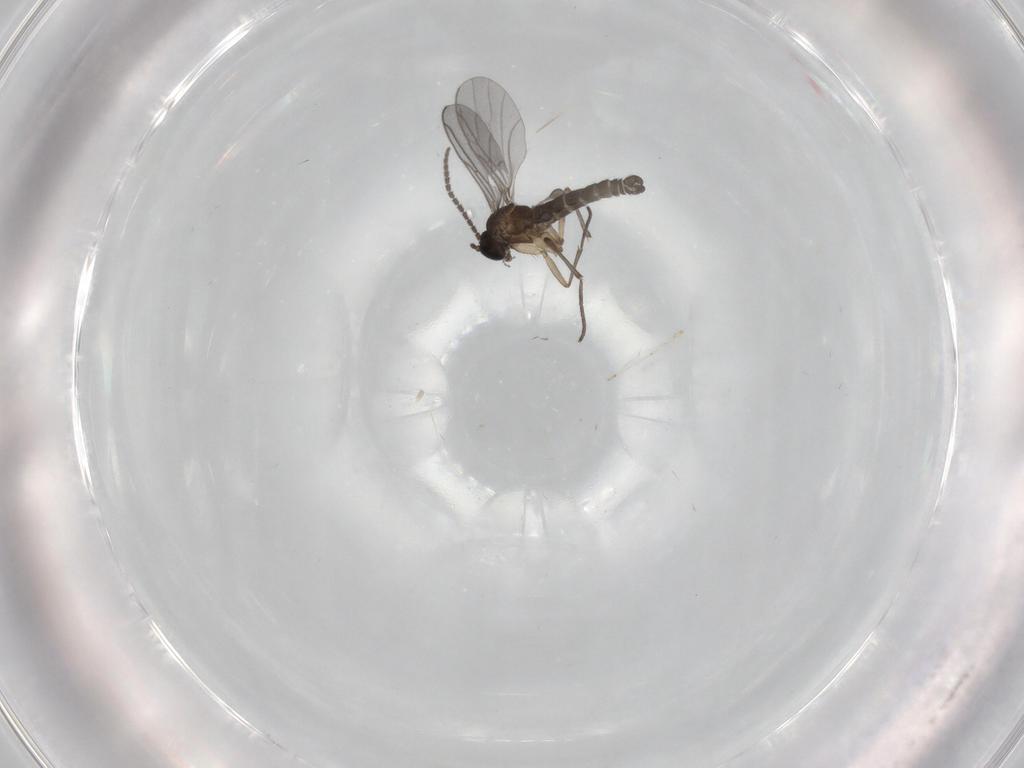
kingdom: Animalia
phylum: Arthropoda
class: Insecta
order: Diptera
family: Sciaridae
